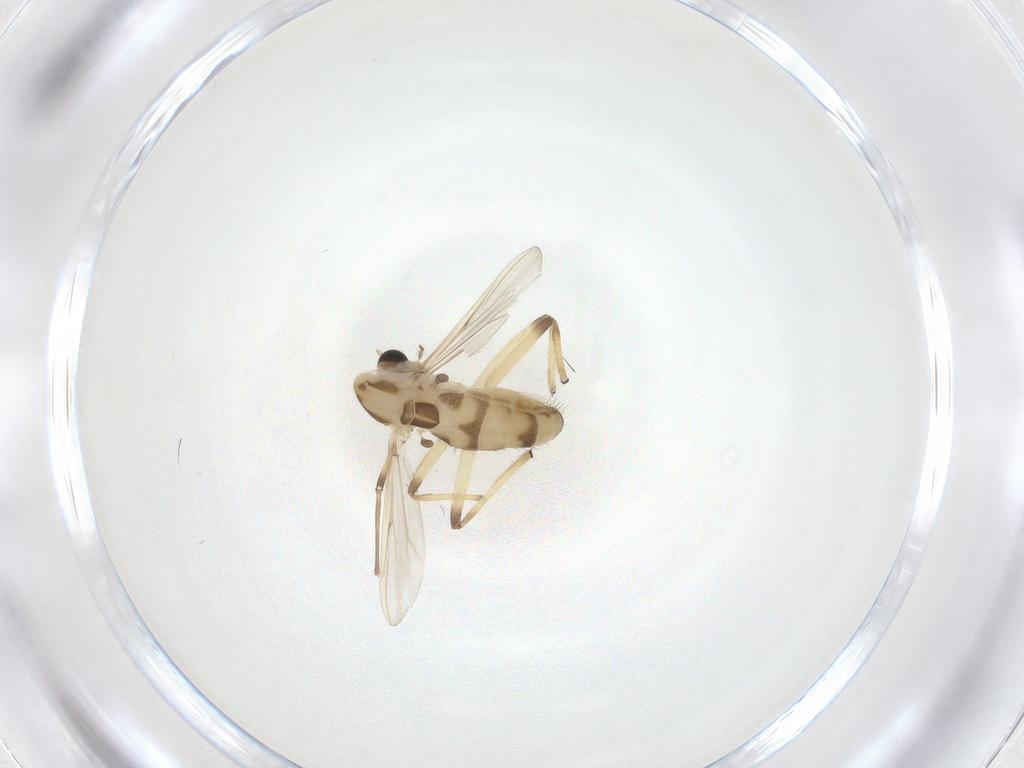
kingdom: Animalia
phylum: Arthropoda
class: Insecta
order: Diptera
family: Chironomidae
